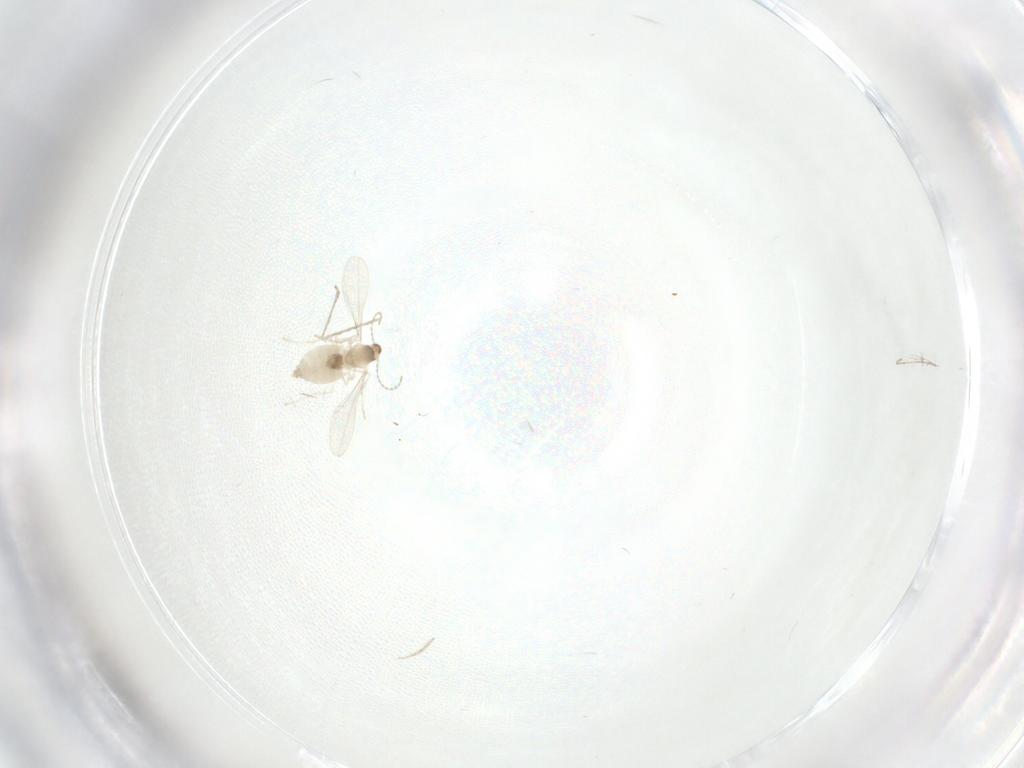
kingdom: Animalia
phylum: Arthropoda
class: Insecta
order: Diptera
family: Cecidomyiidae
